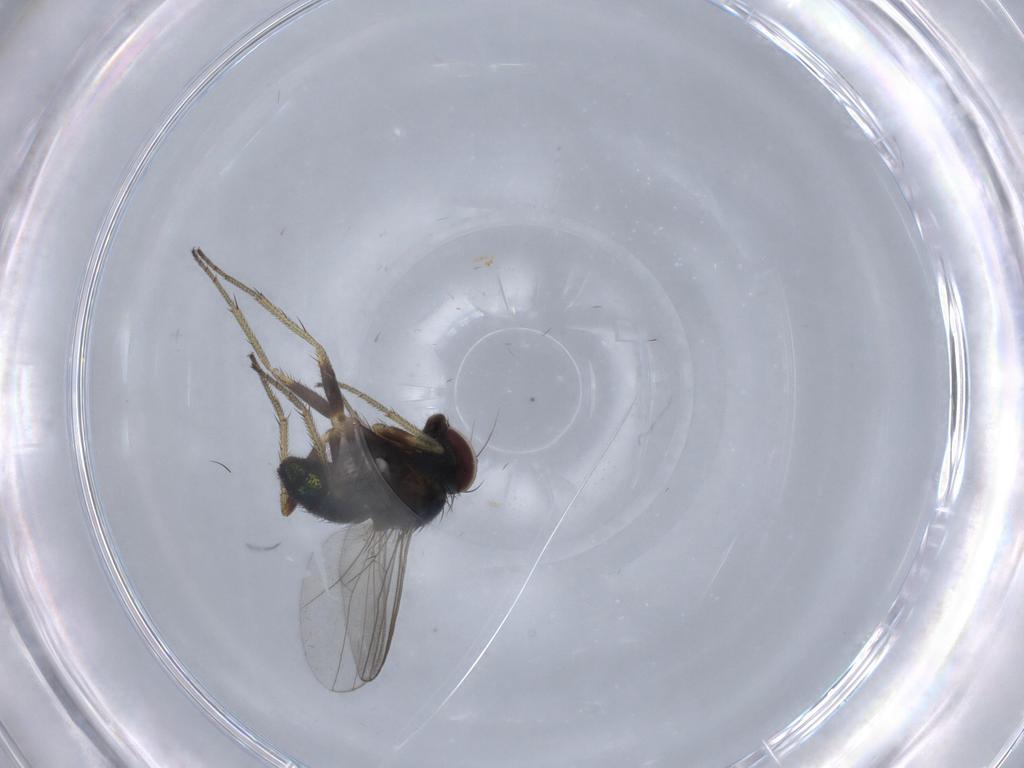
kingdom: Animalia
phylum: Arthropoda
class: Insecta
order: Diptera
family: Dolichopodidae
